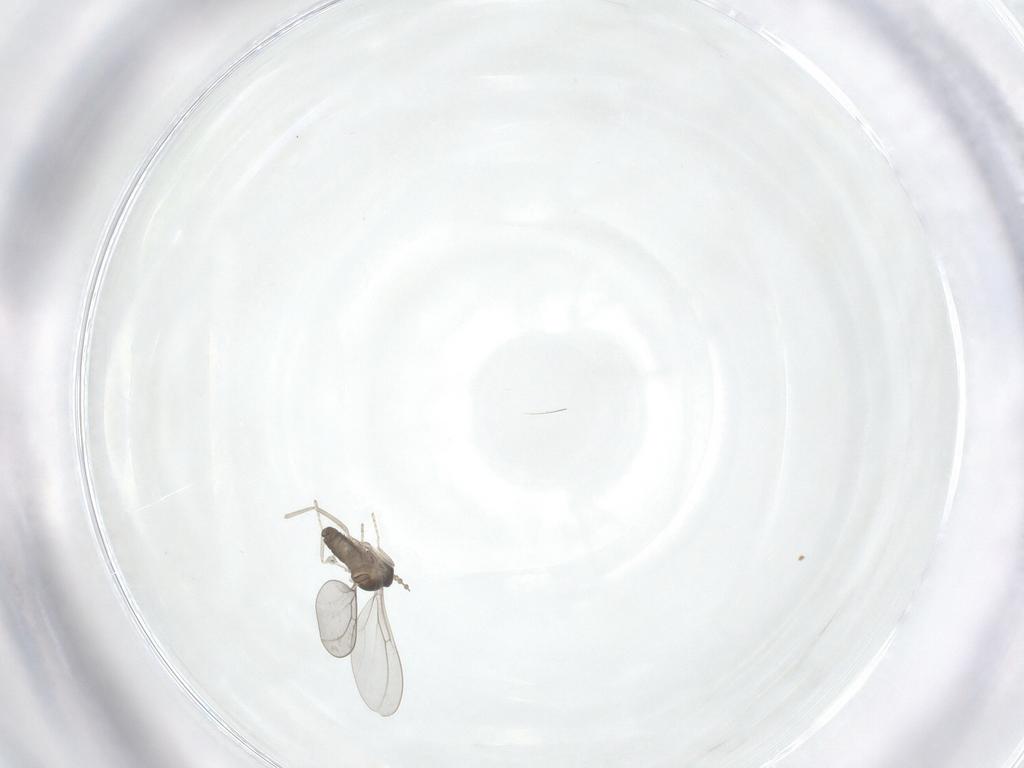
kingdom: Animalia
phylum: Arthropoda
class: Insecta
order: Diptera
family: Cecidomyiidae
